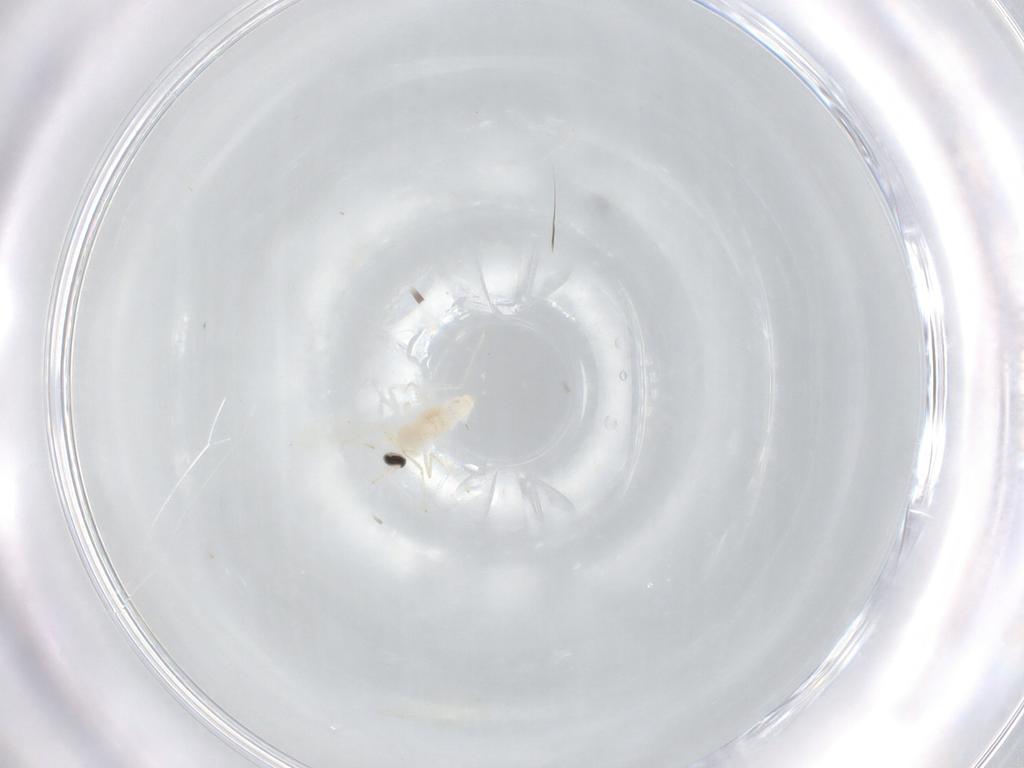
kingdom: Animalia
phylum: Arthropoda
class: Insecta
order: Diptera
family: Cecidomyiidae
